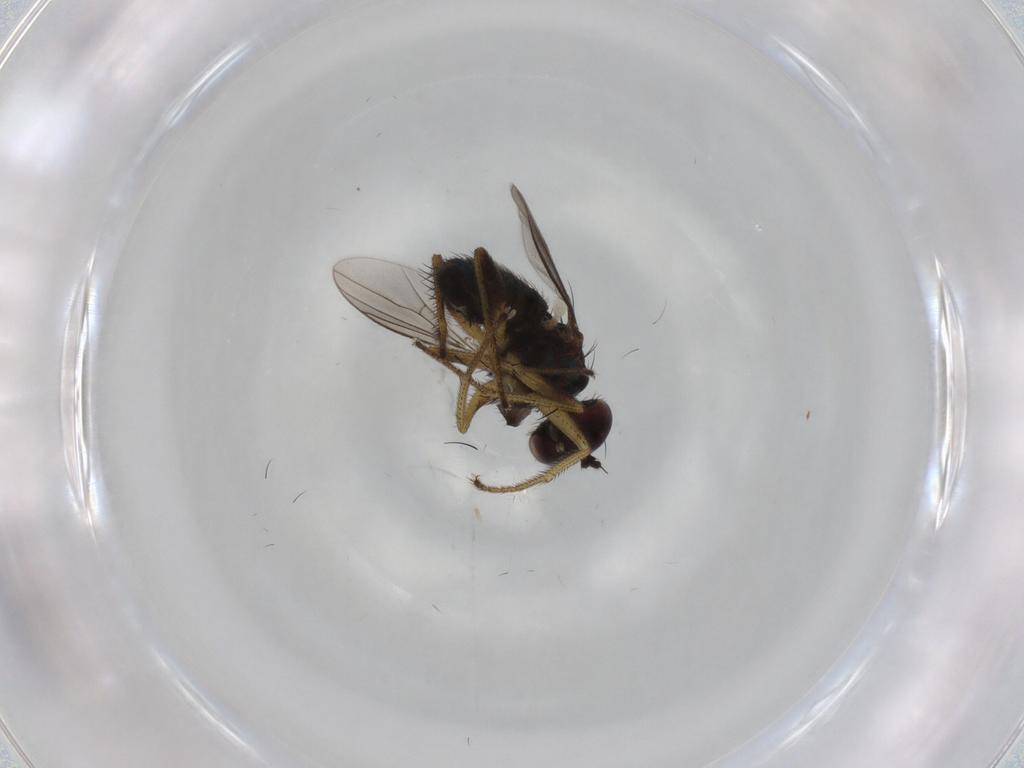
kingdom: Animalia
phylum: Arthropoda
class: Insecta
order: Diptera
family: Dolichopodidae
